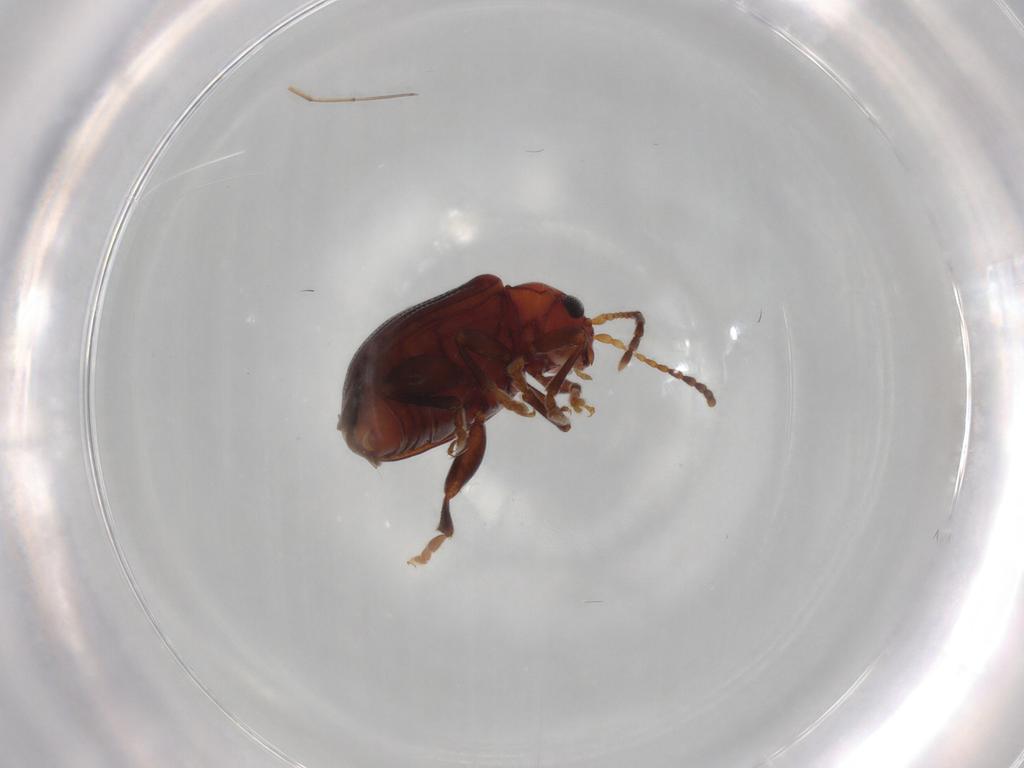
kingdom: Animalia
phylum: Arthropoda
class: Insecta
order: Coleoptera
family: Chrysomelidae
